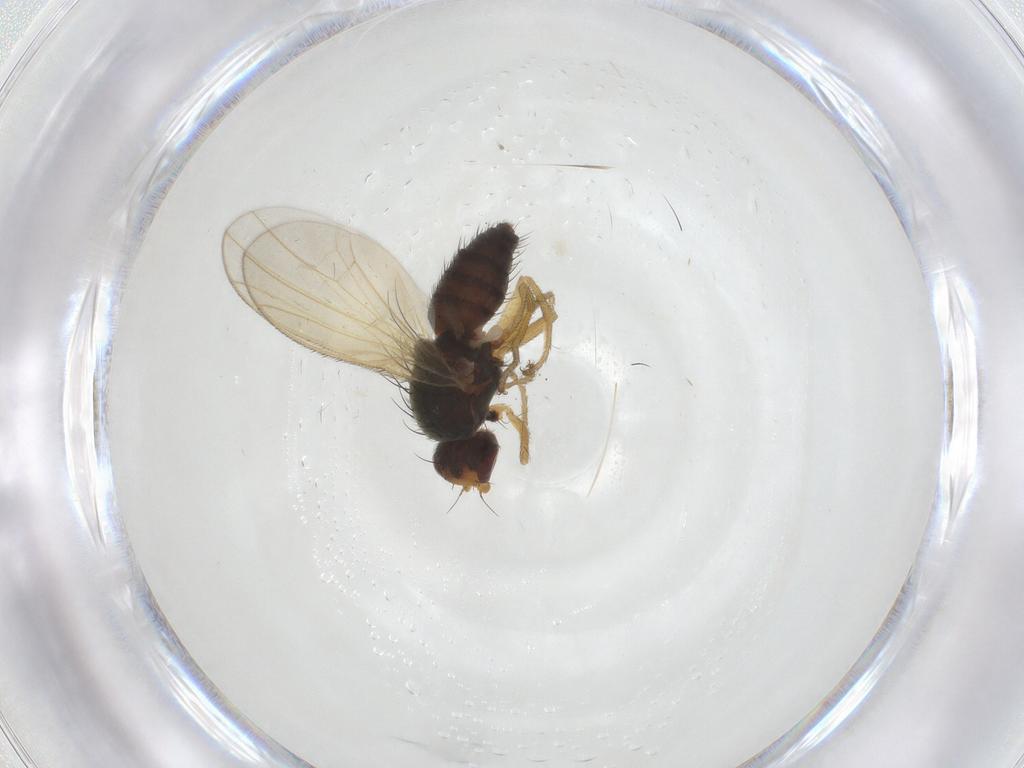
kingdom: Animalia
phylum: Arthropoda
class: Insecta
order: Diptera
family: Heleomyzidae
